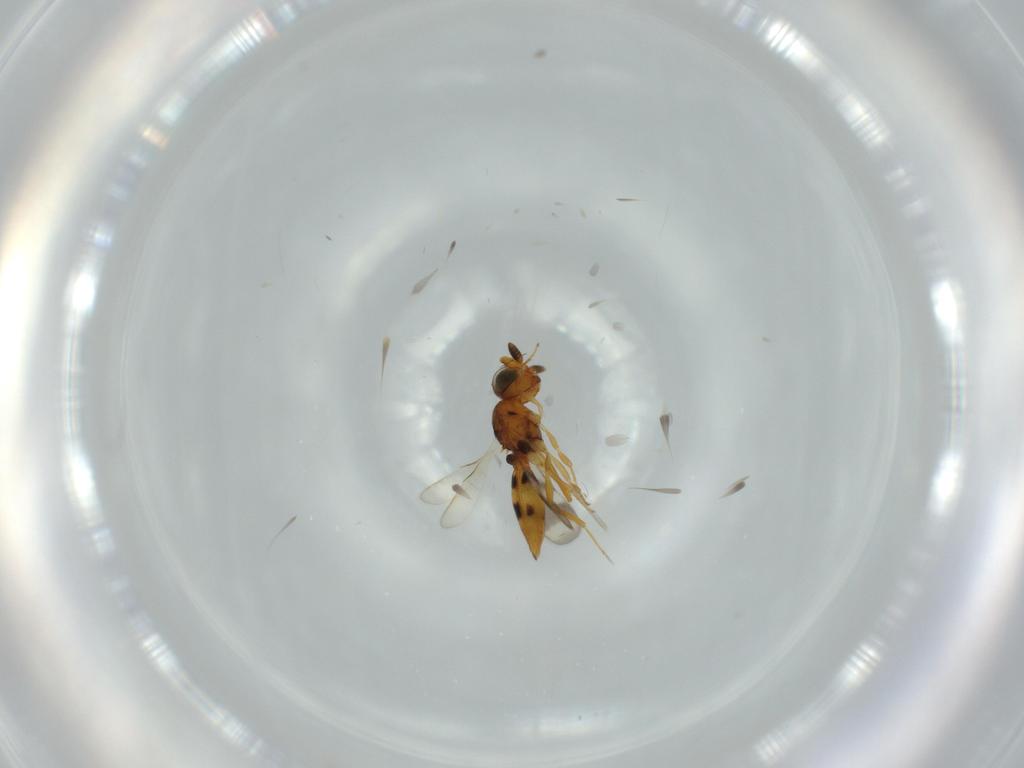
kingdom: Animalia
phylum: Arthropoda
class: Insecta
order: Hymenoptera
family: Scelionidae
